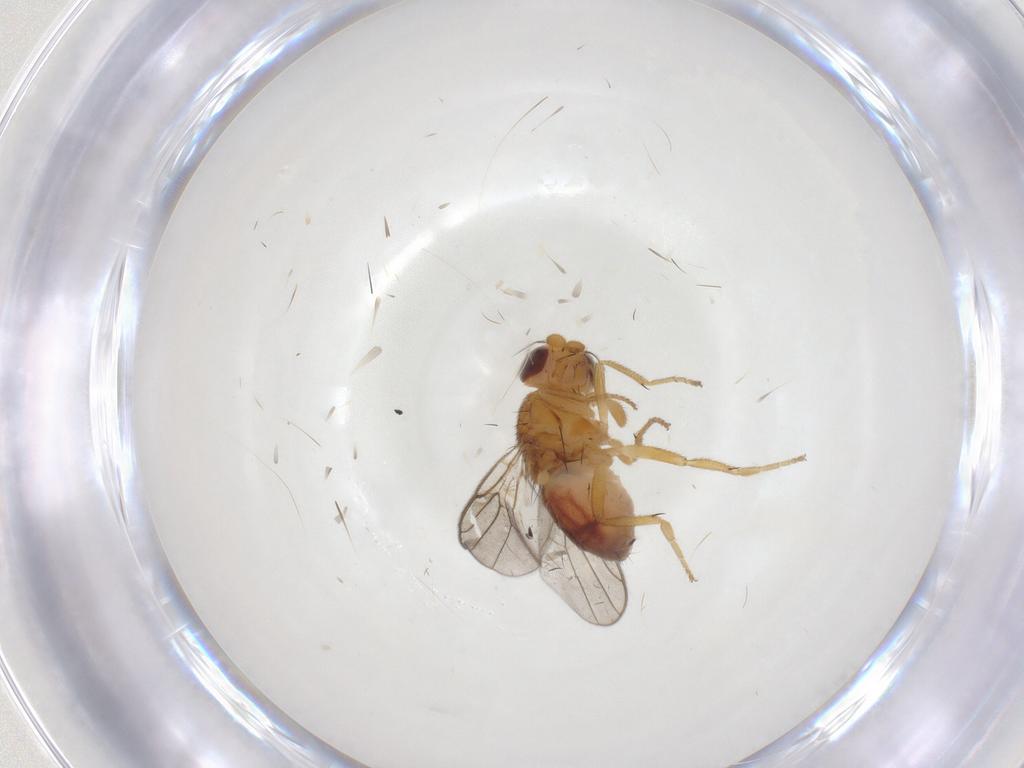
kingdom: Animalia
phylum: Arthropoda
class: Insecta
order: Diptera
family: Chloropidae
